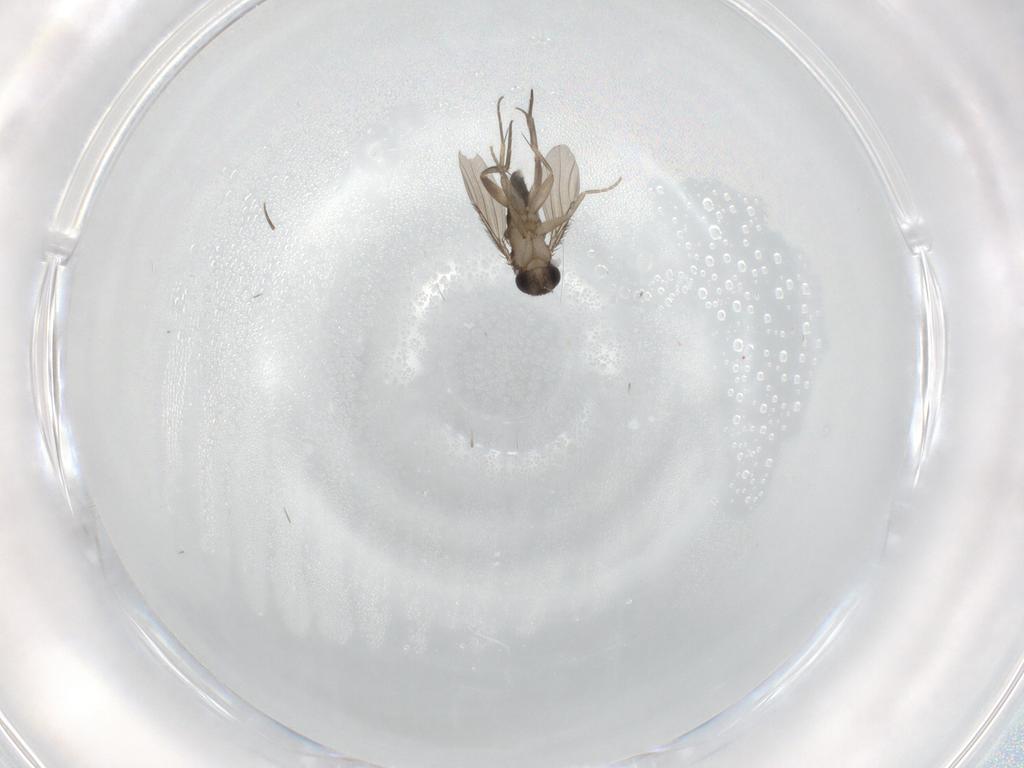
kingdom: Animalia
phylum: Arthropoda
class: Insecta
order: Diptera
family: Phoridae
